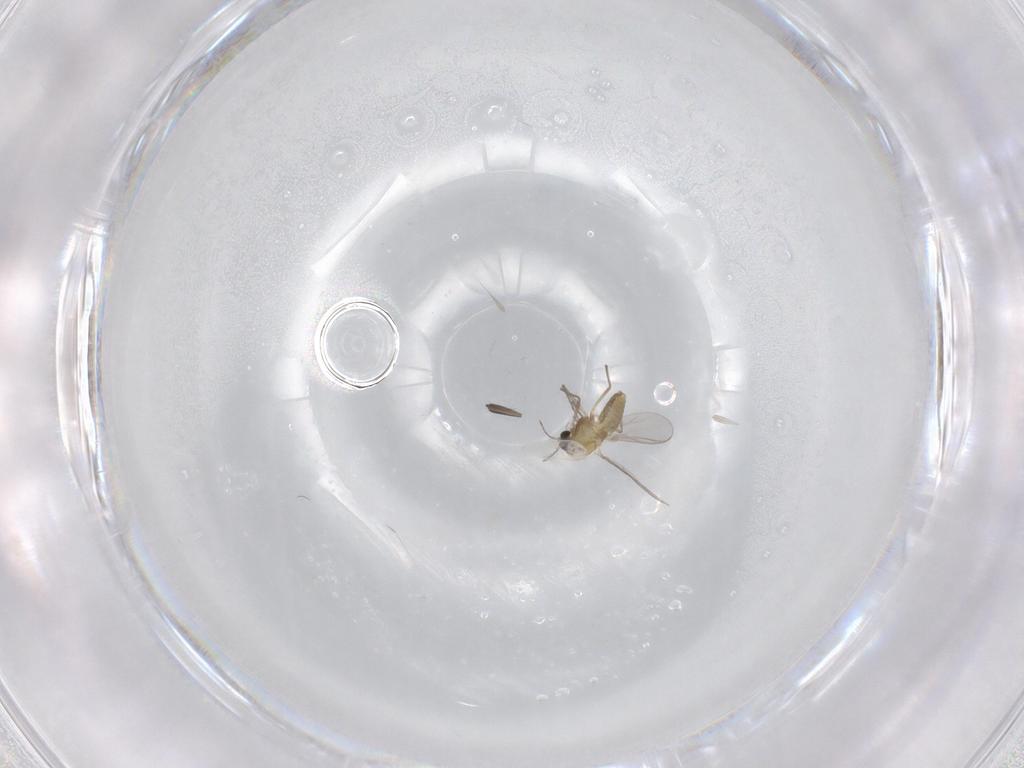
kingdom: Animalia
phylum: Arthropoda
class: Insecta
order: Diptera
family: Chironomidae
